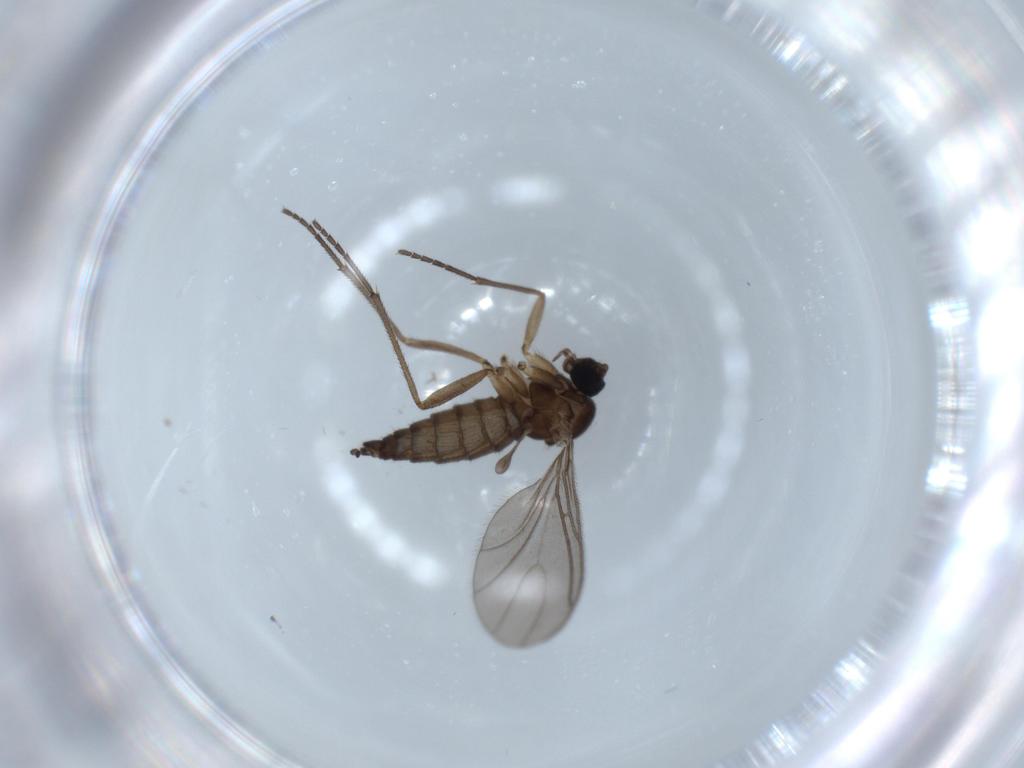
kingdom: Animalia
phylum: Arthropoda
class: Insecta
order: Diptera
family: Sciaridae
